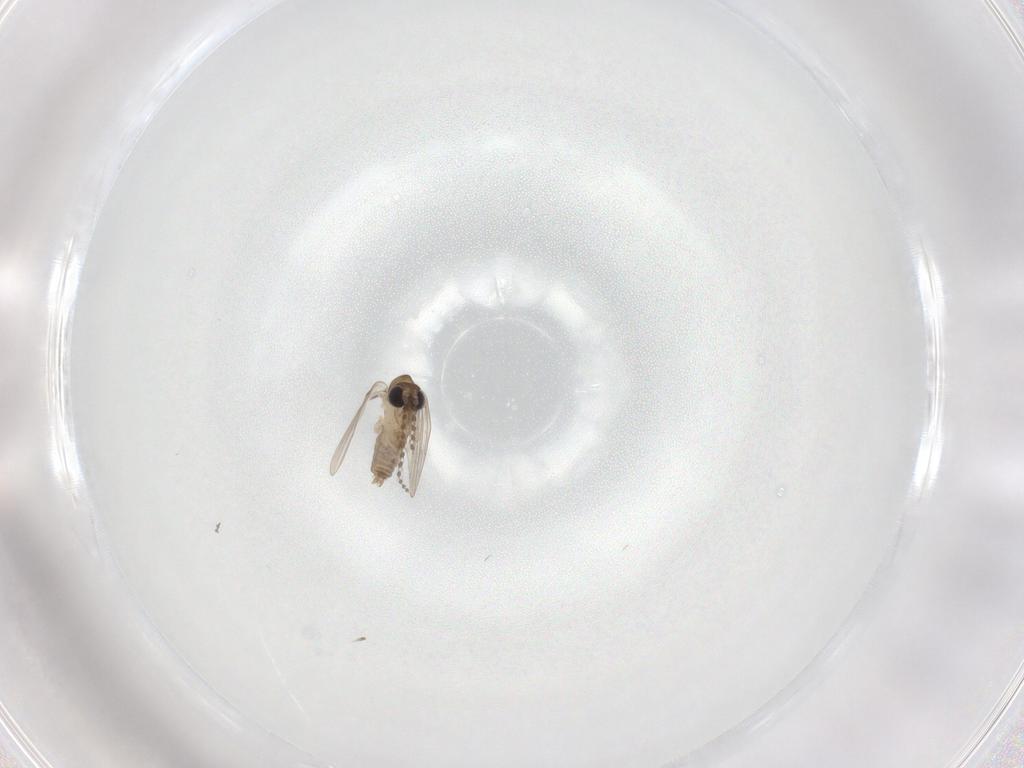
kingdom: Animalia
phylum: Arthropoda
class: Insecta
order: Diptera
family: Psychodidae
